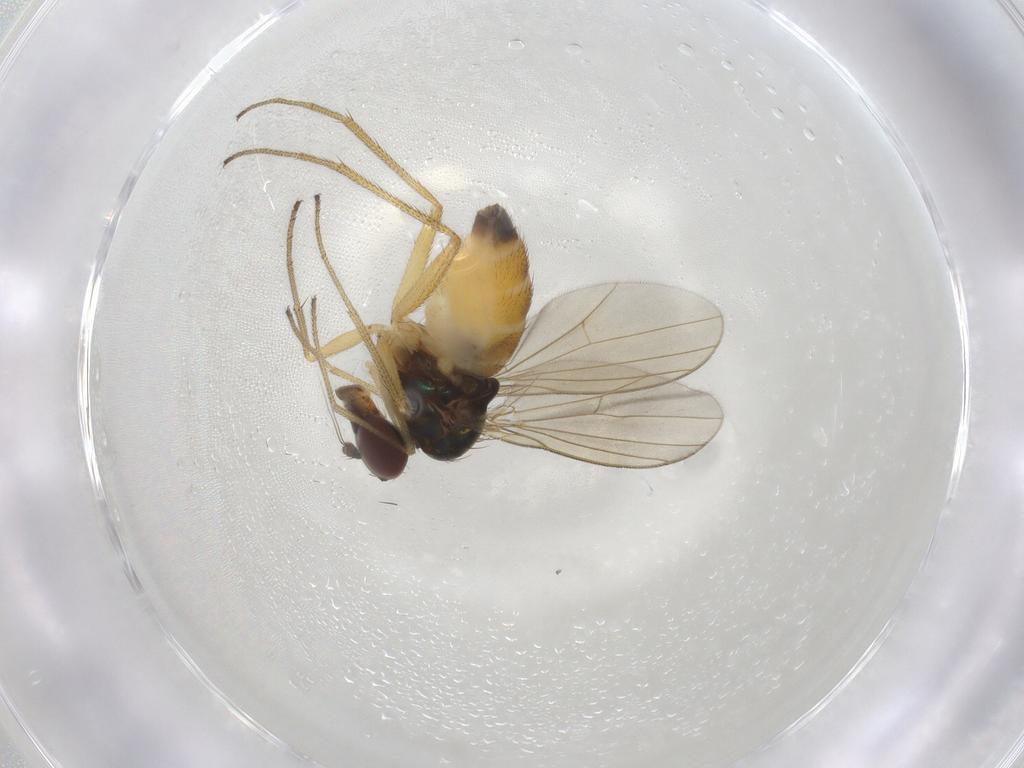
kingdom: Animalia
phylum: Arthropoda
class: Insecta
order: Diptera
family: Dolichopodidae
